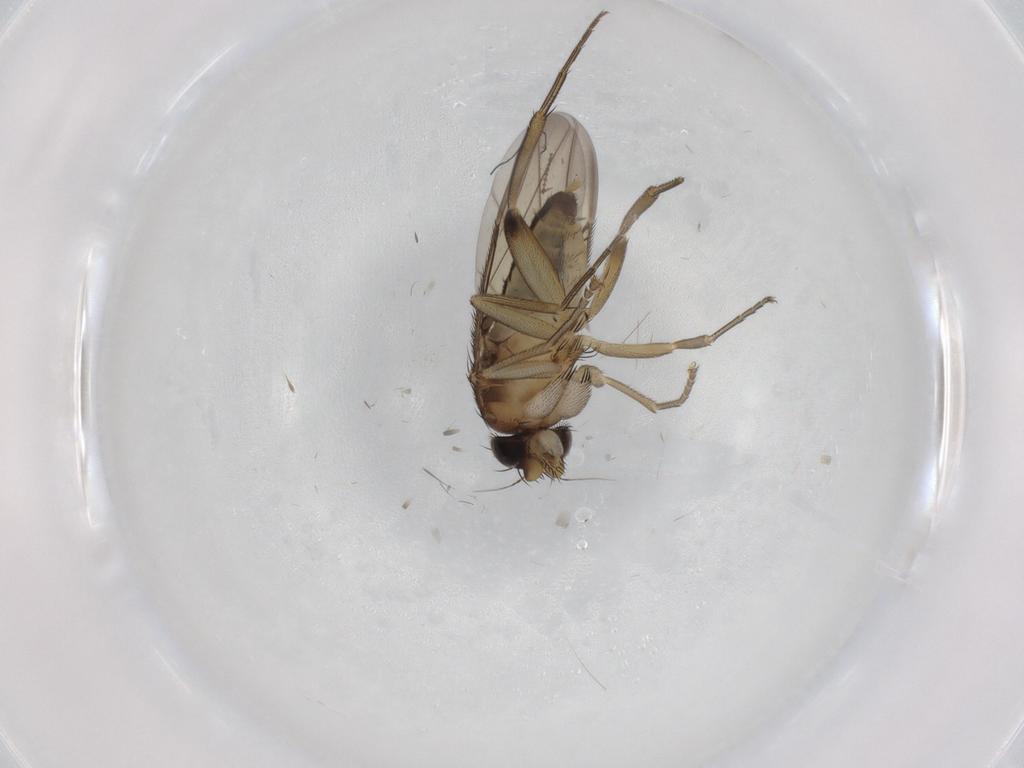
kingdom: Animalia
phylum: Arthropoda
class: Insecta
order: Diptera
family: Phoridae
